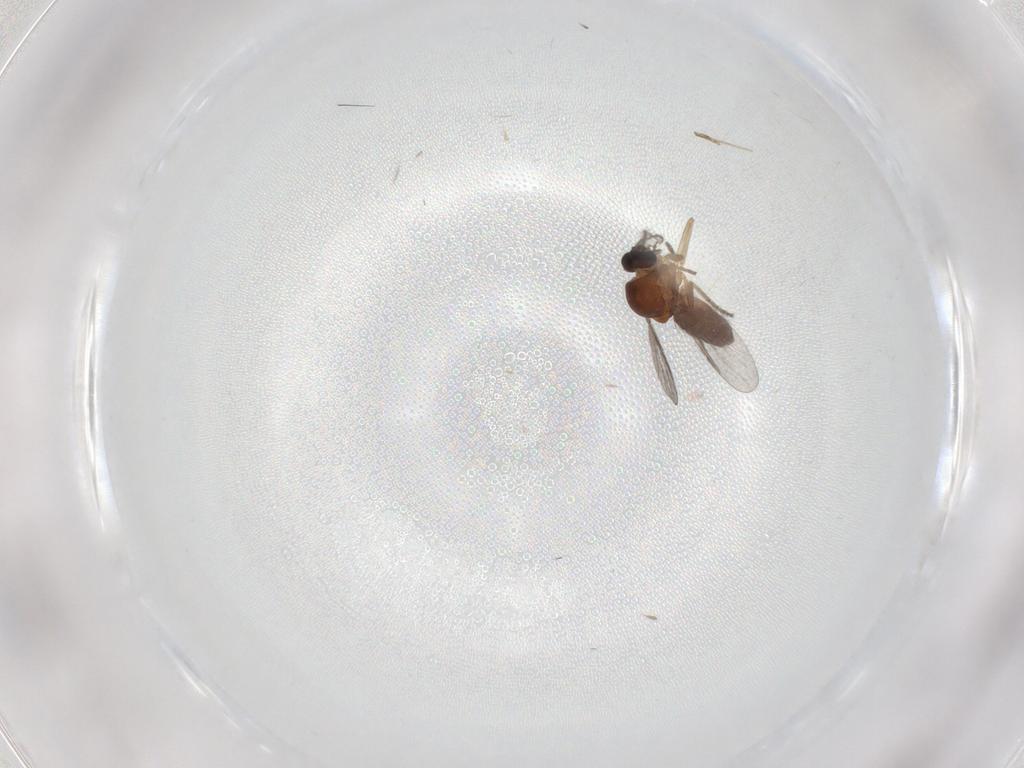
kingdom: Animalia
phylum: Arthropoda
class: Insecta
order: Diptera
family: Ceratopogonidae
